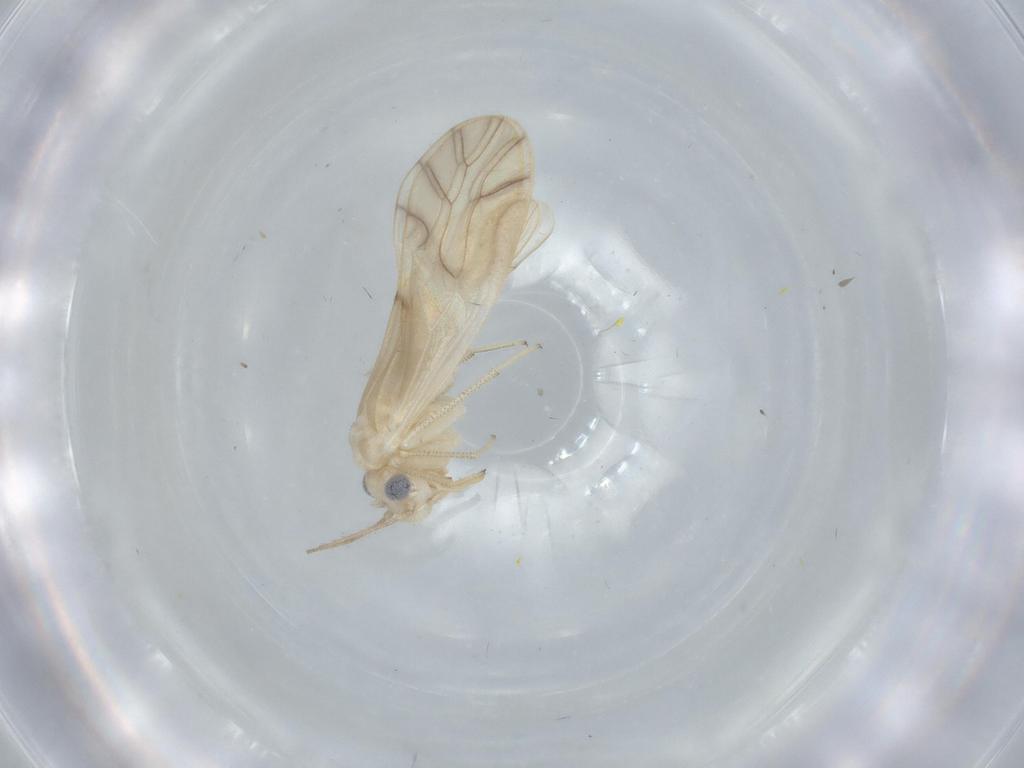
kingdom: Animalia
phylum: Arthropoda
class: Insecta
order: Psocodea
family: Caeciliusidae
